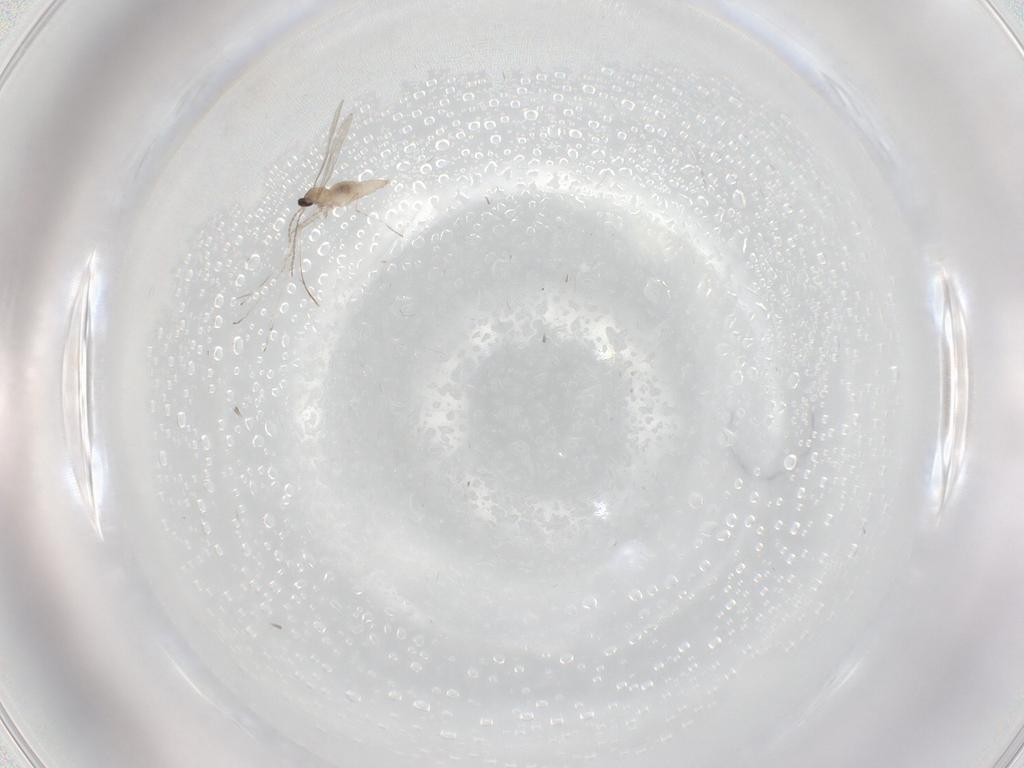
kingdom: Animalia
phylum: Arthropoda
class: Insecta
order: Diptera
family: Cecidomyiidae
